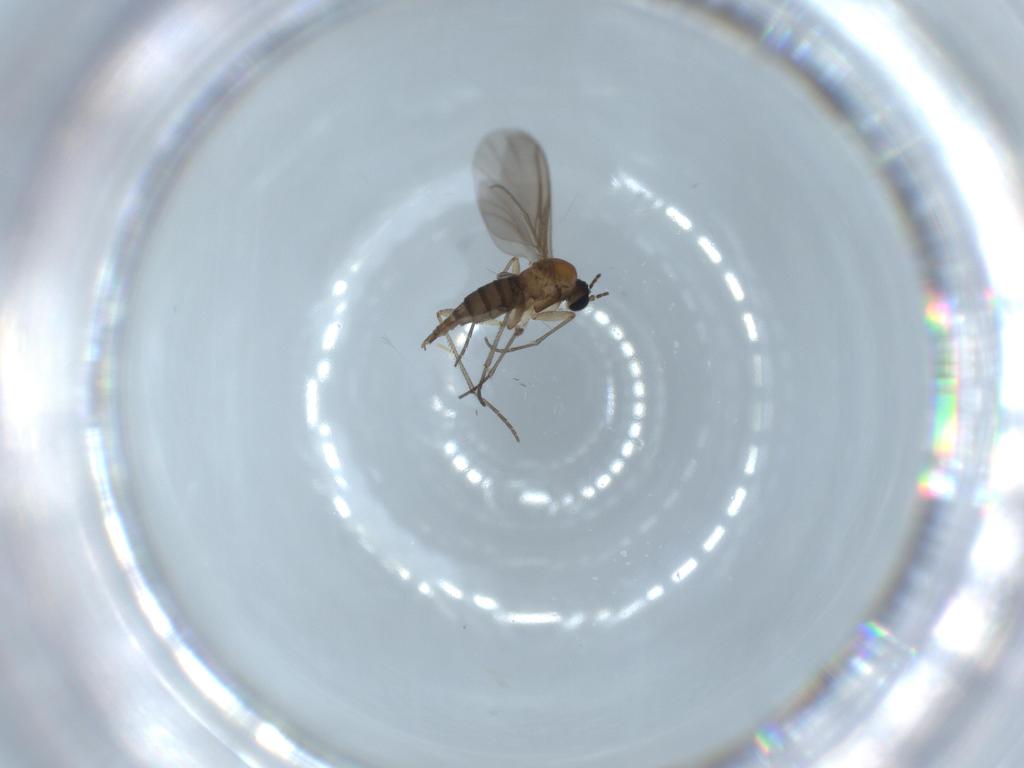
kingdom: Animalia
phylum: Arthropoda
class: Insecta
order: Diptera
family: Sciaridae
